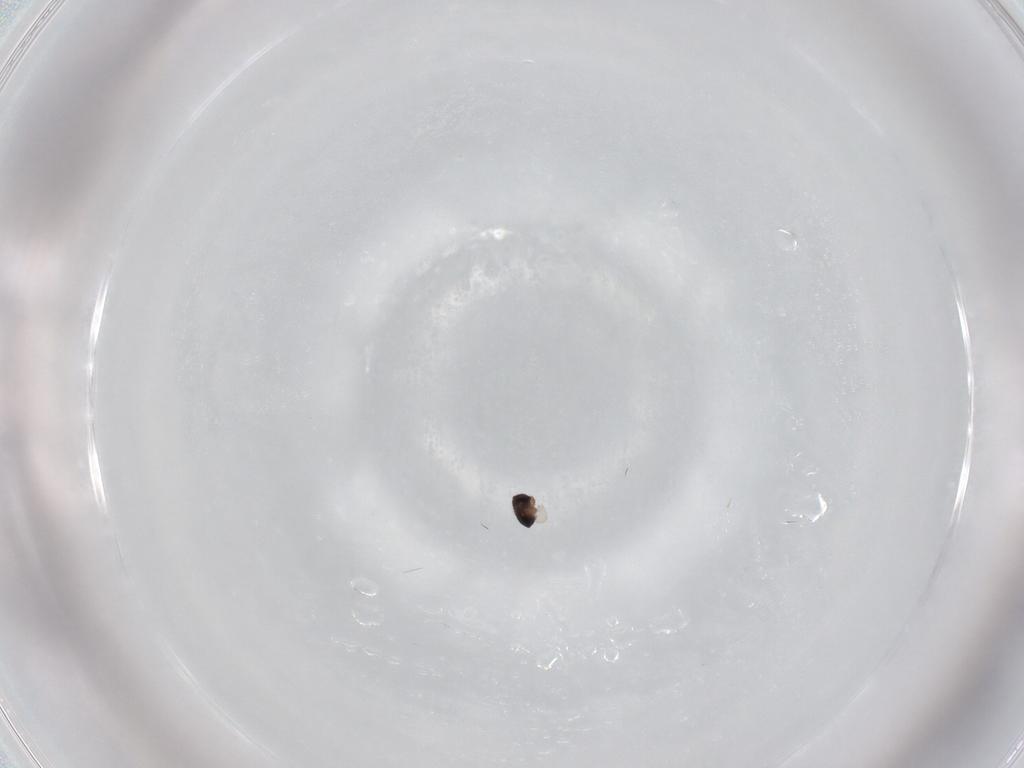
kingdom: Animalia
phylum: Arthropoda
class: Insecta
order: Diptera
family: Phoridae
